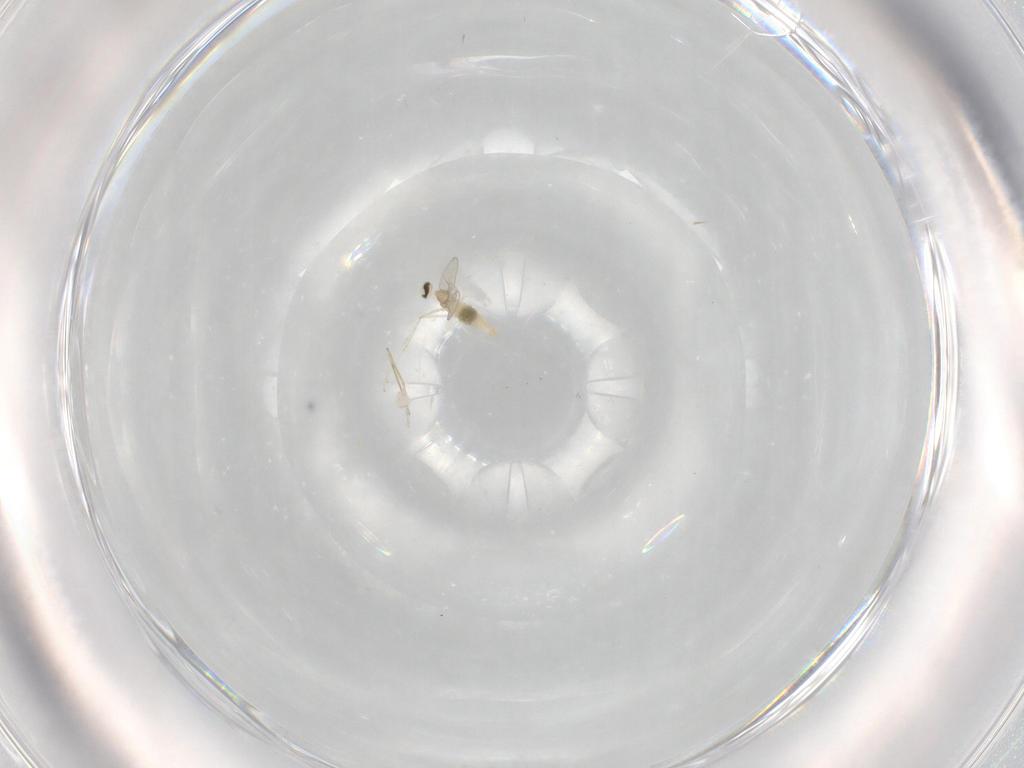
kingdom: Animalia
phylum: Arthropoda
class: Insecta
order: Diptera
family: Cecidomyiidae
